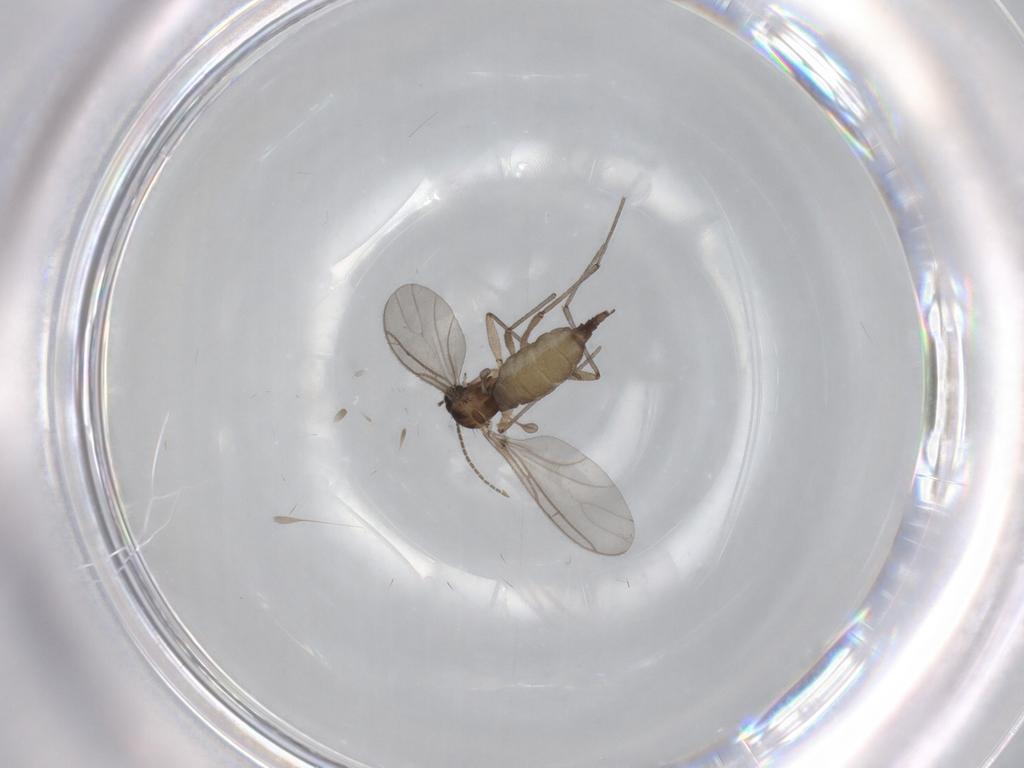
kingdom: Animalia
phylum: Arthropoda
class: Insecta
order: Diptera
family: Sciaridae
